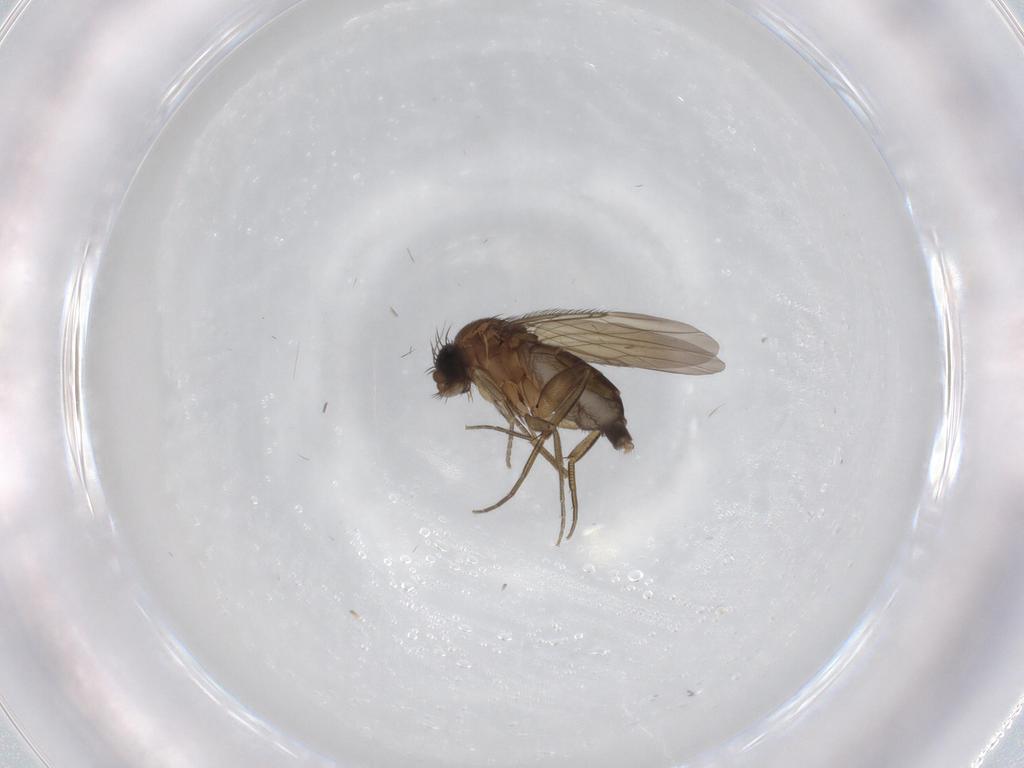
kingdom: Animalia
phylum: Arthropoda
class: Insecta
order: Diptera
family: Phoridae
